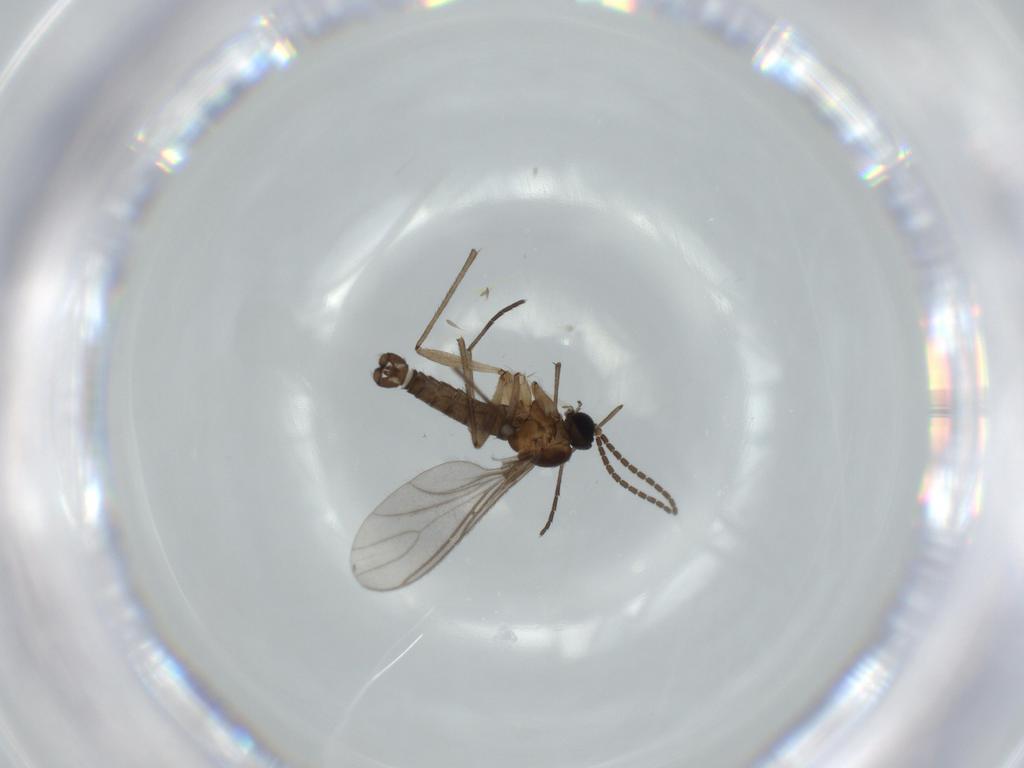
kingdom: Animalia
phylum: Arthropoda
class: Insecta
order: Diptera
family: Sciaridae
